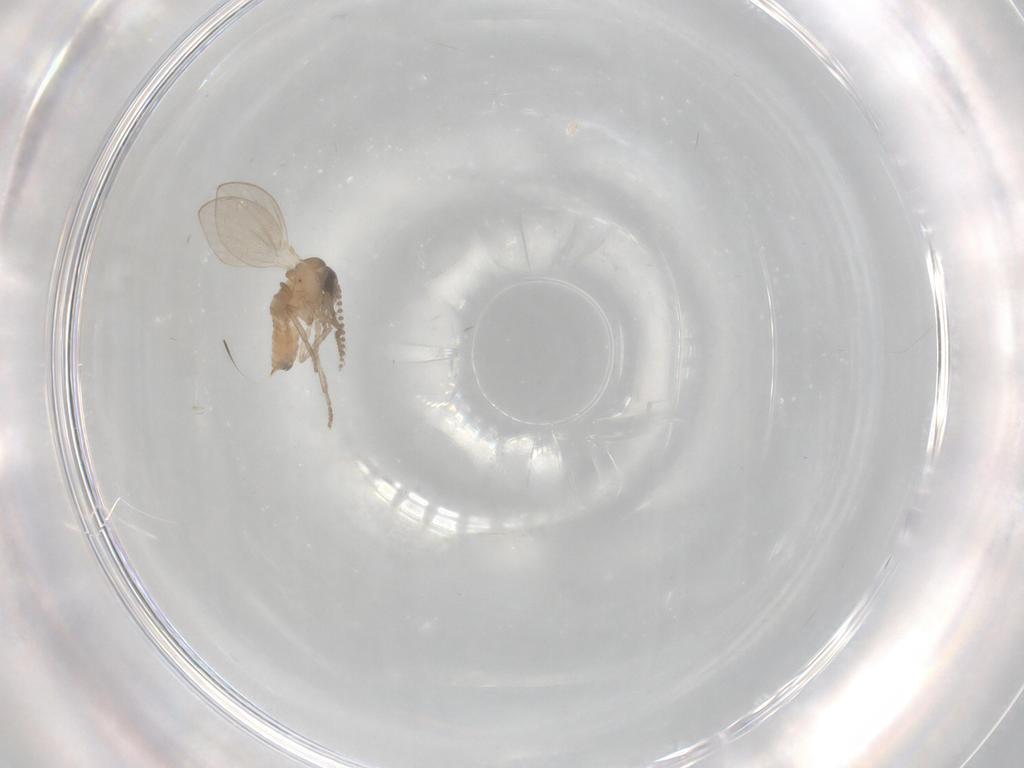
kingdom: Animalia
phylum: Arthropoda
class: Insecta
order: Diptera
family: Psychodidae
